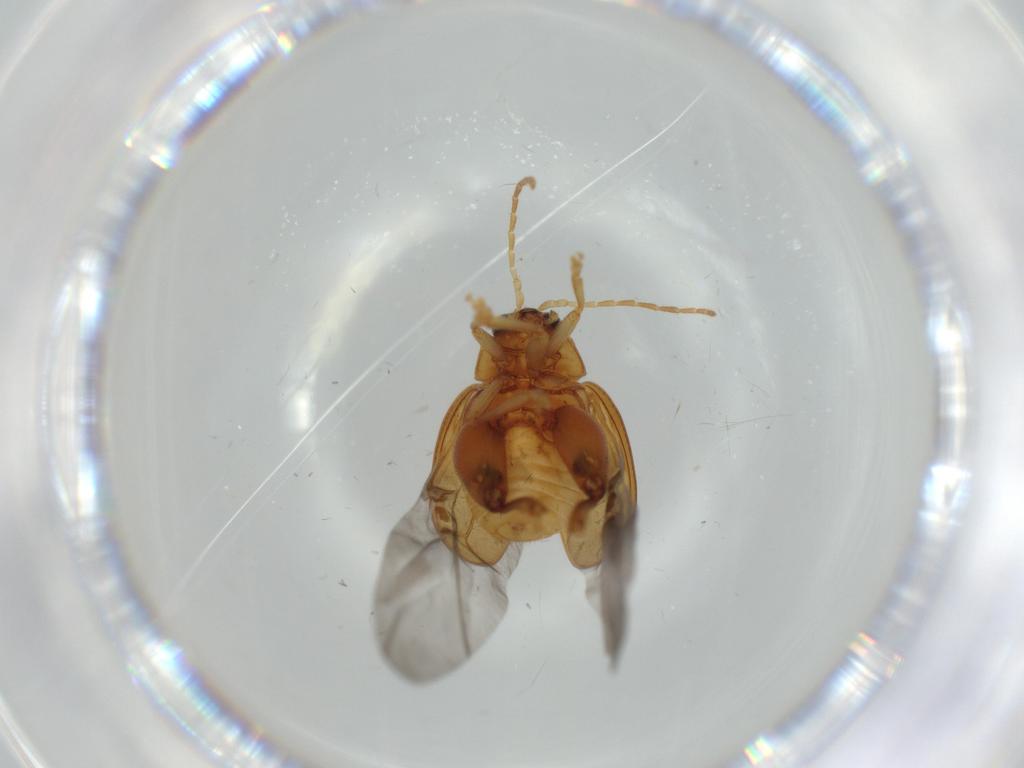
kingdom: Animalia
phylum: Arthropoda
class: Insecta
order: Coleoptera
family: Chrysomelidae
